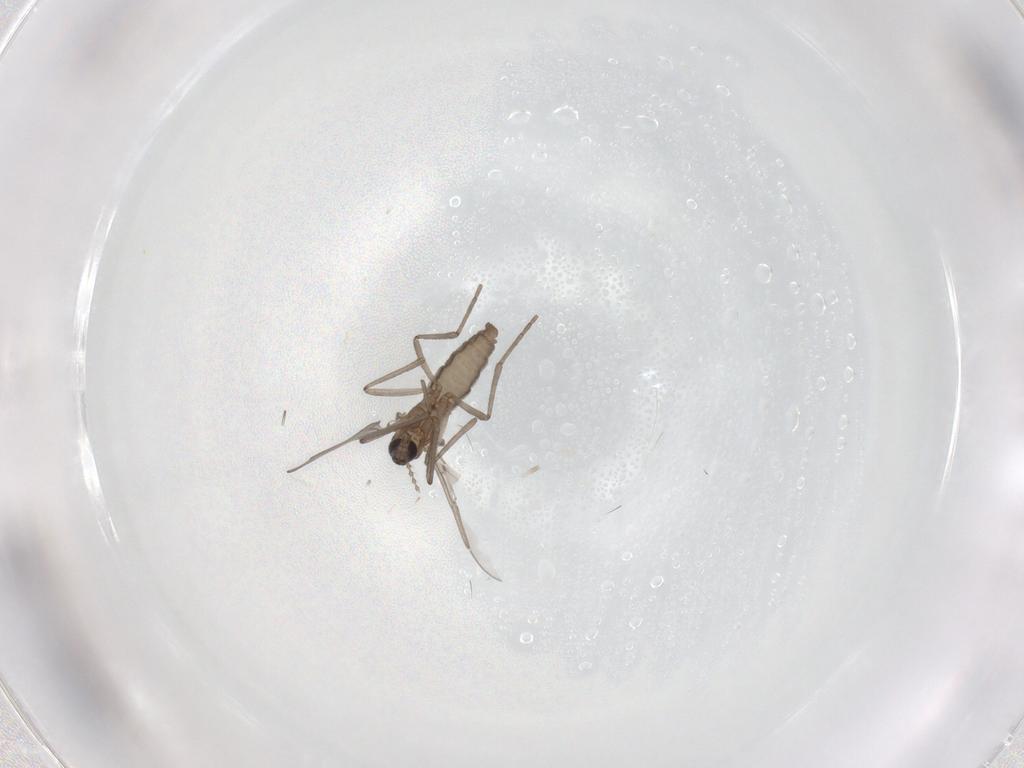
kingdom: Animalia
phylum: Arthropoda
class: Insecta
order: Diptera
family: Cecidomyiidae
